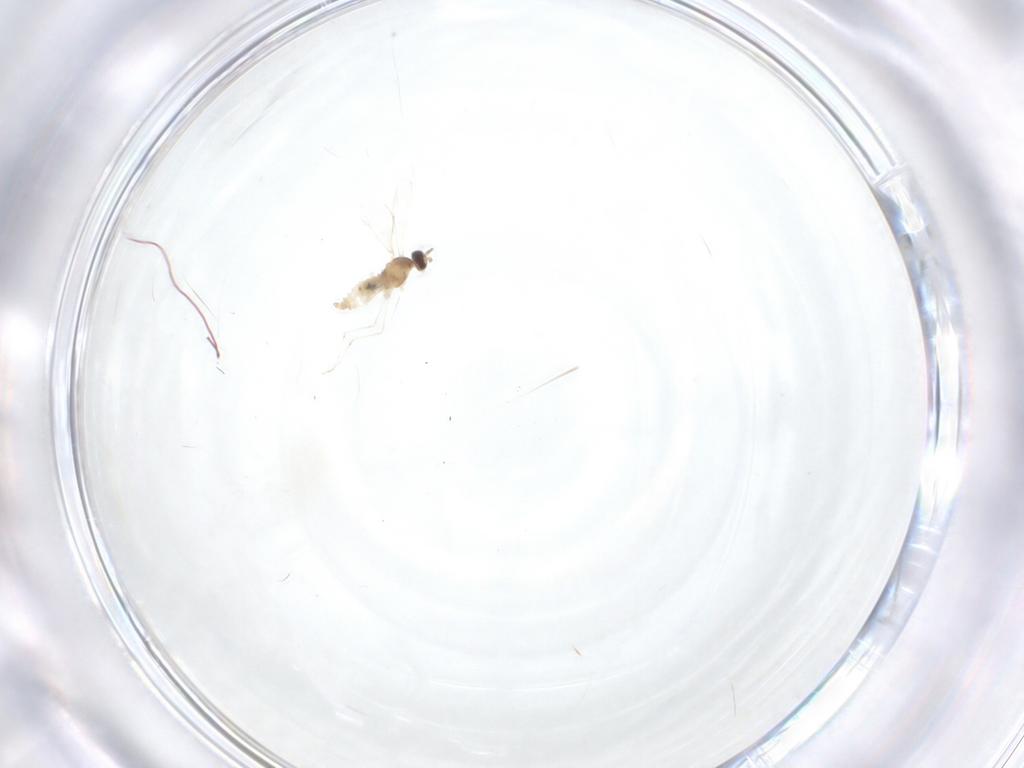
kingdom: Animalia
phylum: Arthropoda
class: Insecta
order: Diptera
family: Cecidomyiidae
